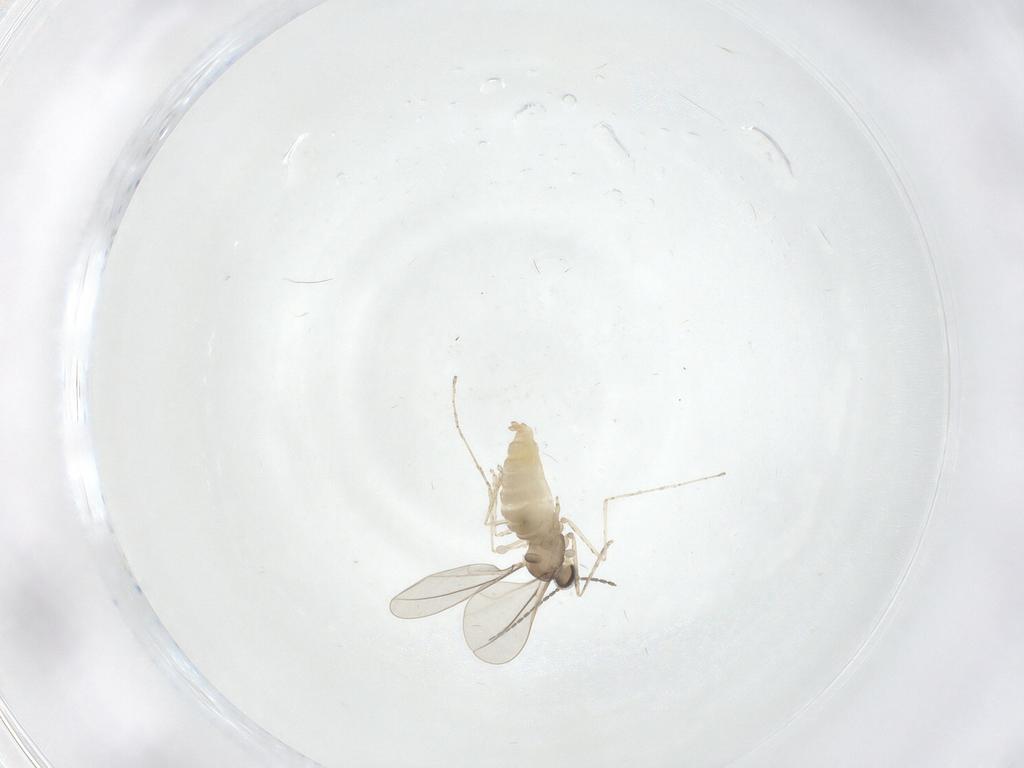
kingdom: Animalia
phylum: Arthropoda
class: Insecta
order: Diptera
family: Cecidomyiidae
